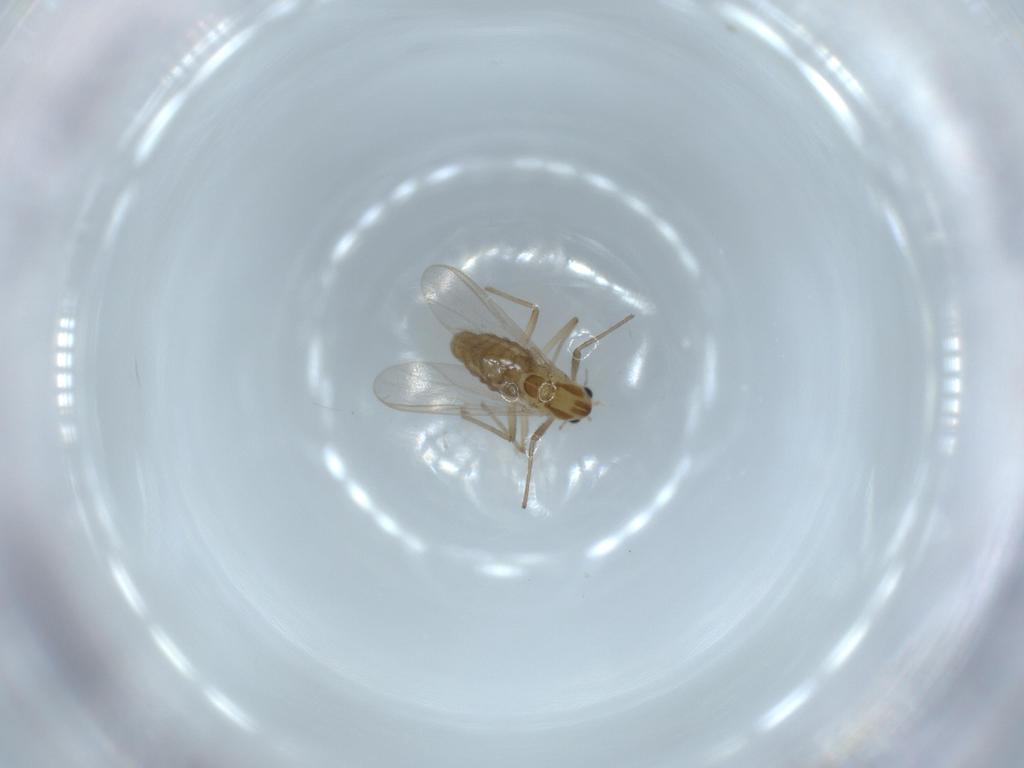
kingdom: Animalia
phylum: Arthropoda
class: Insecta
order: Diptera
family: Chironomidae
